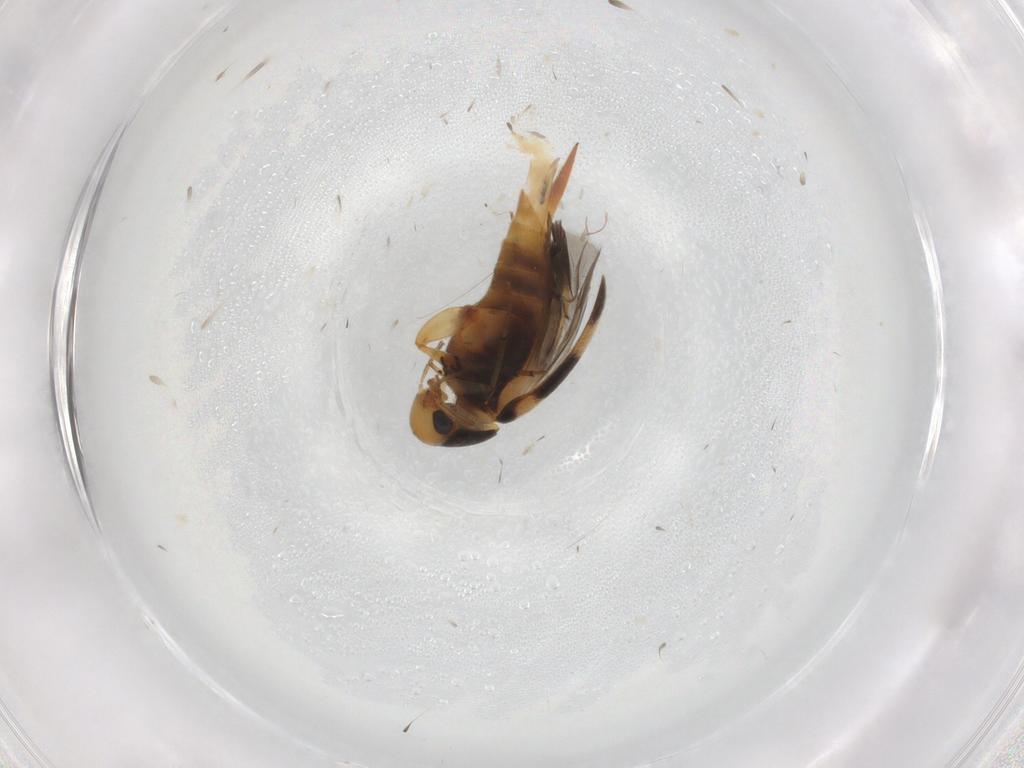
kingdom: Animalia
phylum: Arthropoda
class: Insecta
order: Coleoptera
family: Mordellidae
